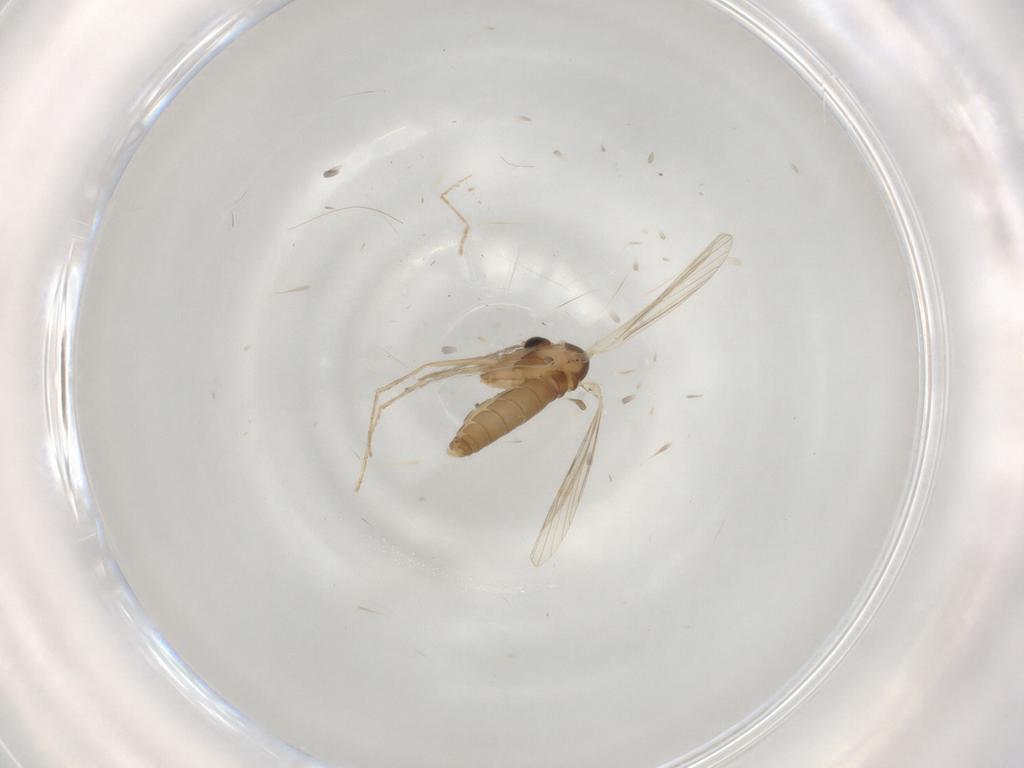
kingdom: Animalia
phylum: Arthropoda
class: Insecta
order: Diptera
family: Psychodidae
